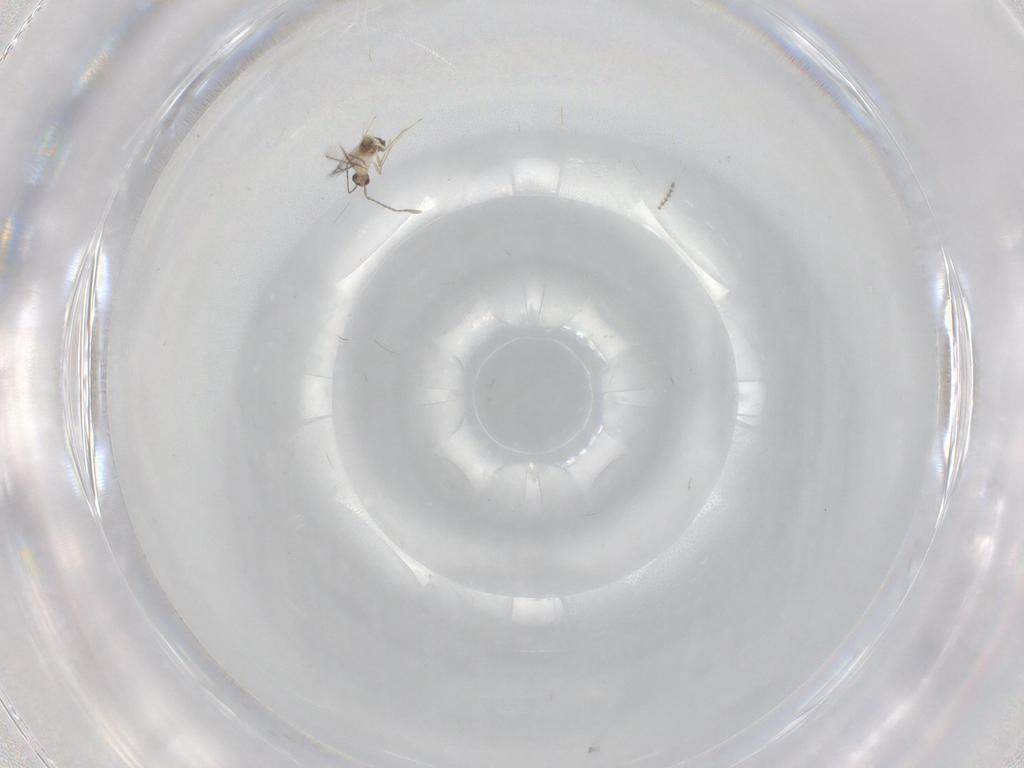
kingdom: Animalia
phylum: Arthropoda
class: Insecta
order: Hymenoptera
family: Mymaridae
